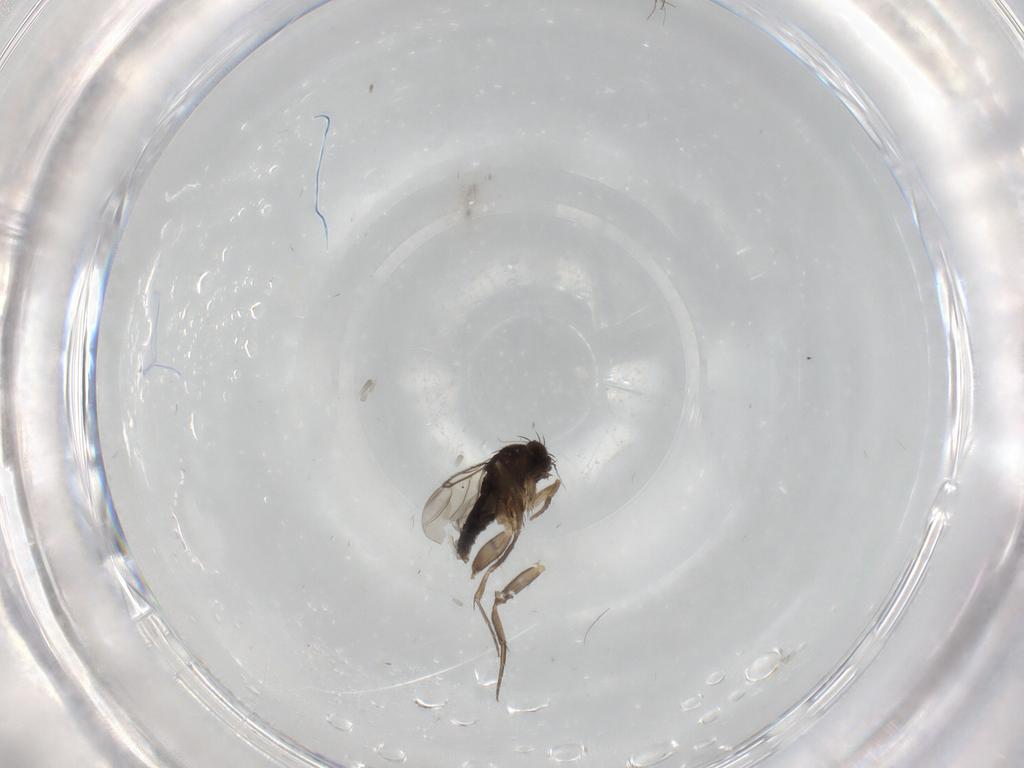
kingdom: Animalia
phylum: Arthropoda
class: Insecta
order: Diptera
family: Phoridae
